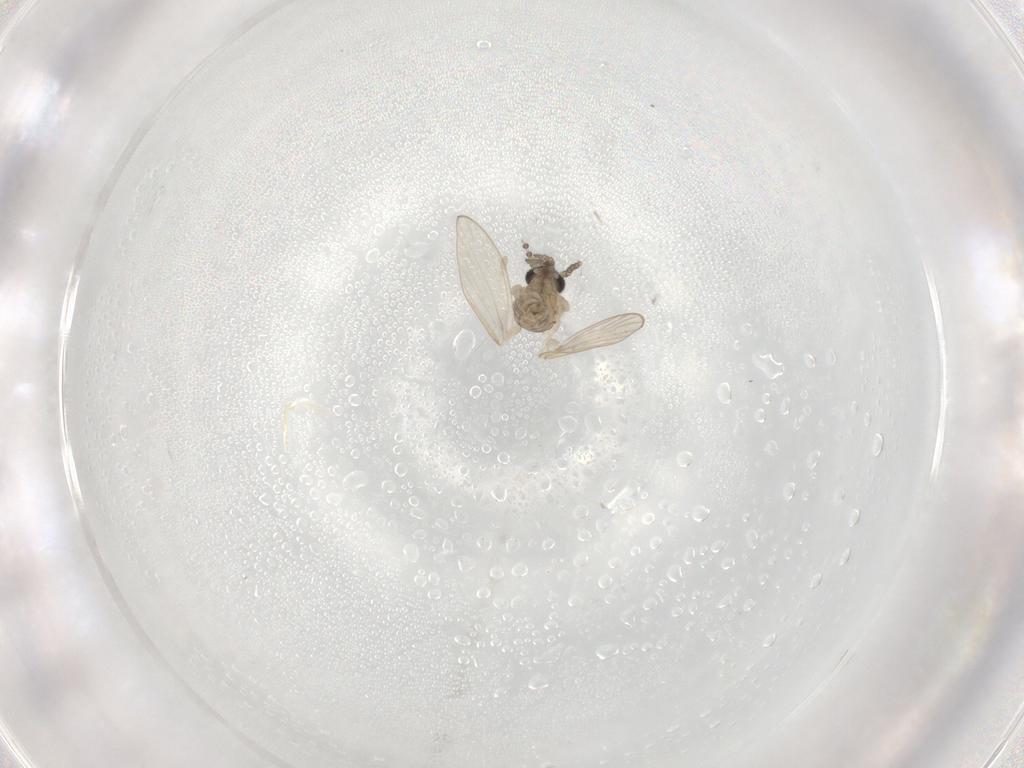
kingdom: Animalia
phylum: Arthropoda
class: Insecta
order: Diptera
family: Psychodidae
